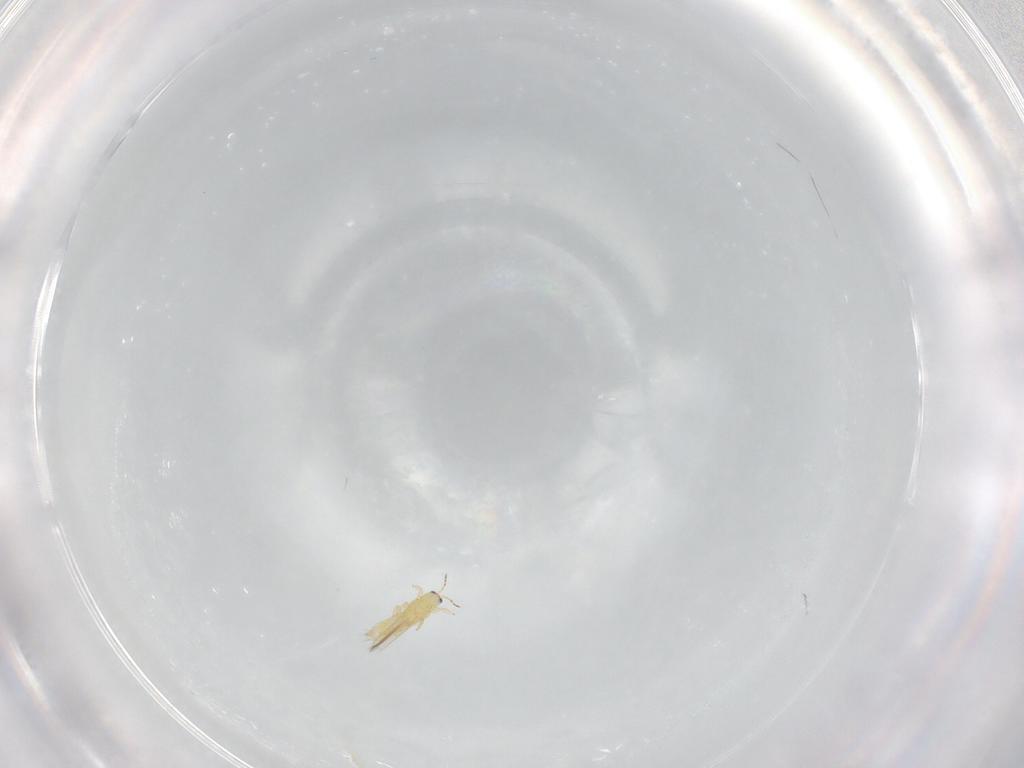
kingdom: Animalia
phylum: Arthropoda
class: Insecta
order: Thysanoptera
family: Thripidae
